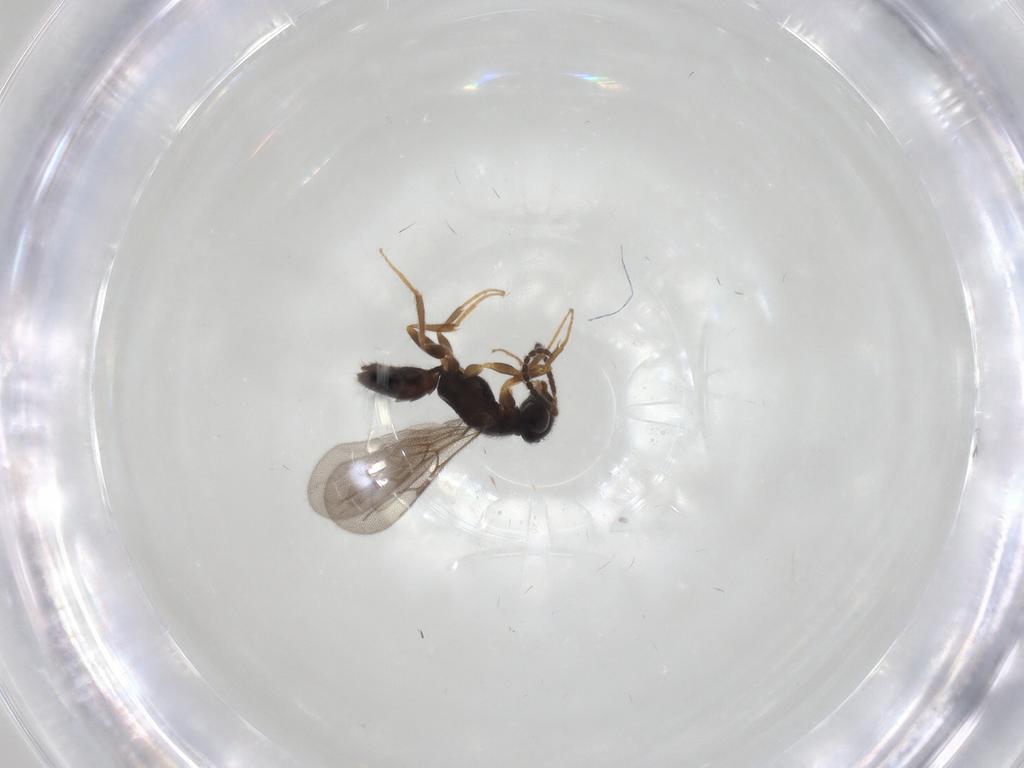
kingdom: Animalia
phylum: Arthropoda
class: Insecta
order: Hymenoptera
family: Bethylidae
